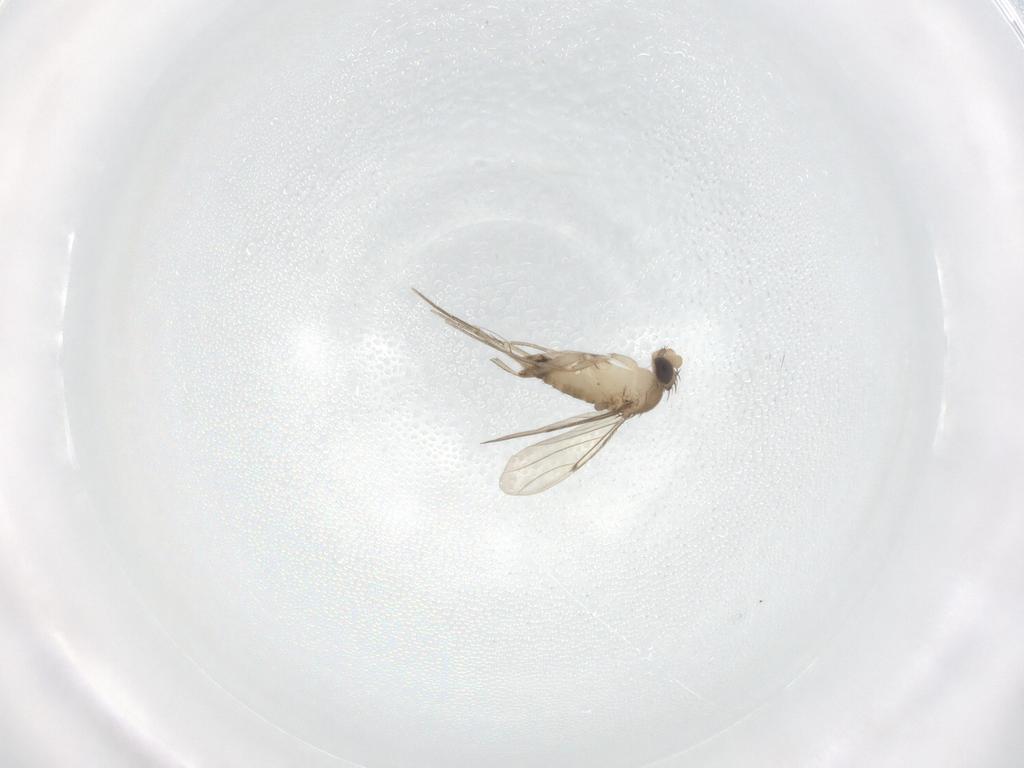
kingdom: Animalia
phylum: Arthropoda
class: Insecta
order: Diptera
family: Phoridae
